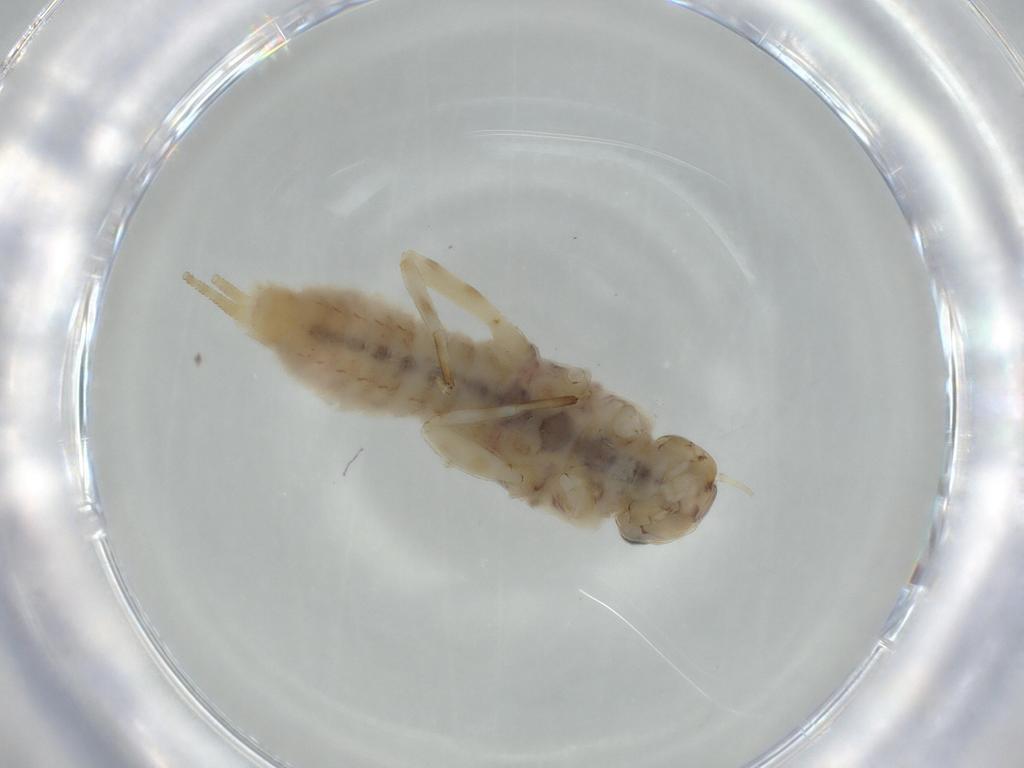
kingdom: Animalia
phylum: Arthropoda
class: Insecta
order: Ephemeroptera
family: Ephemerellidae
